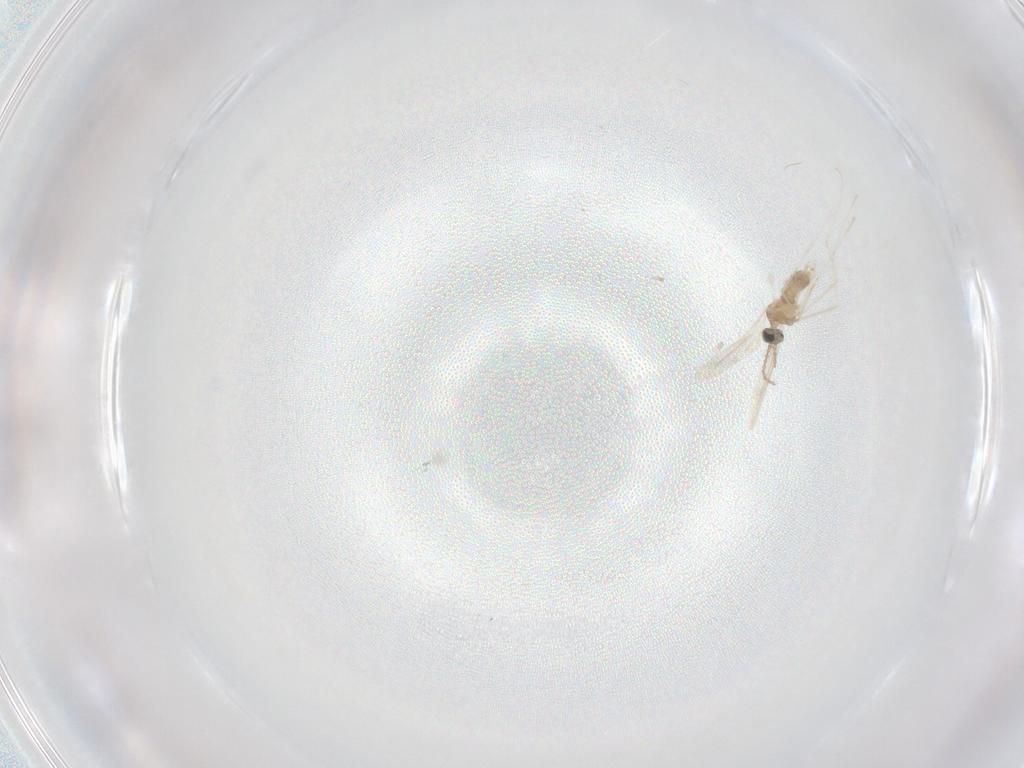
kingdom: Animalia
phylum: Arthropoda
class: Insecta
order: Diptera
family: Cecidomyiidae
